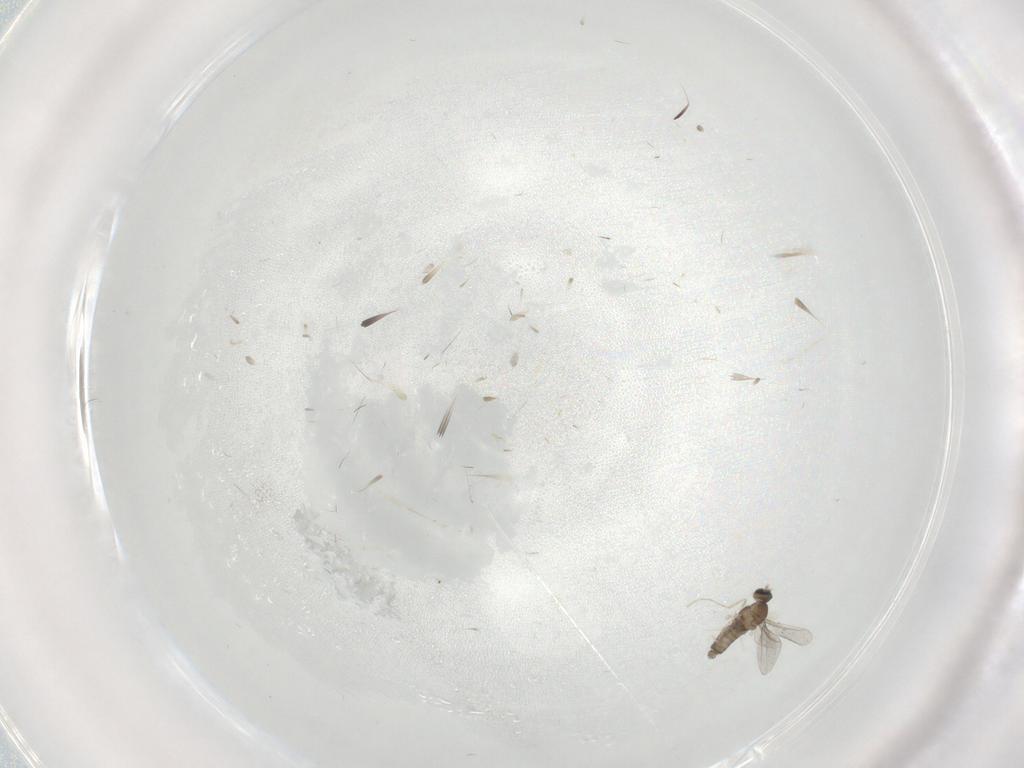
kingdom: Animalia
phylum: Arthropoda
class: Insecta
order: Diptera
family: Sciaridae
